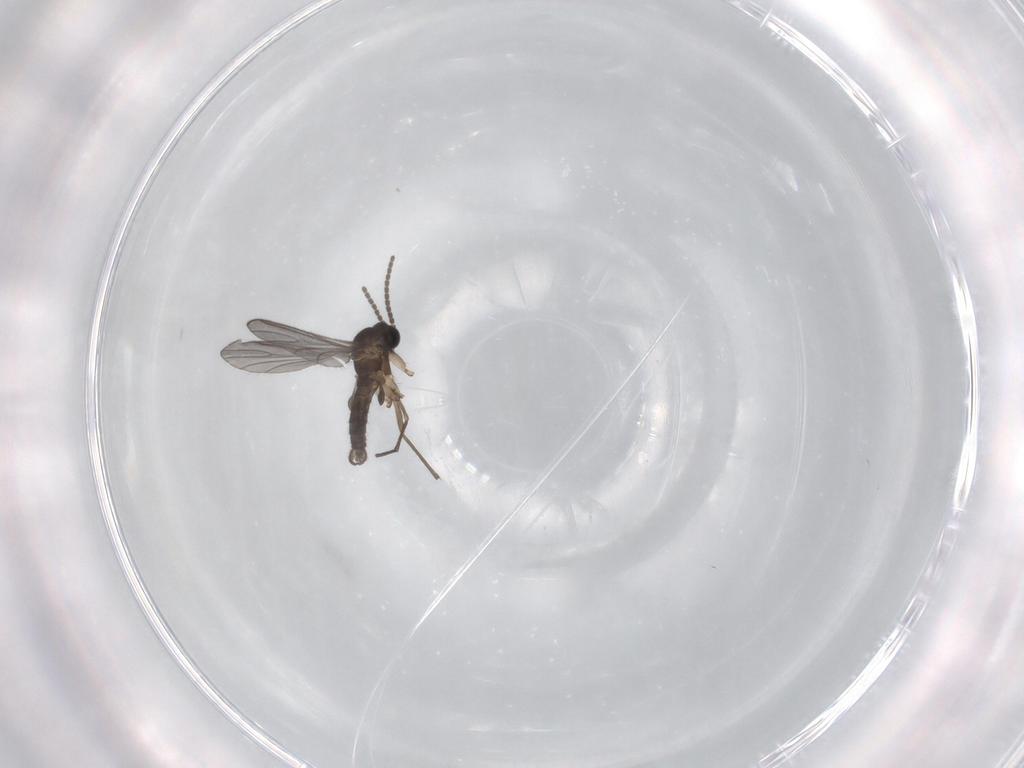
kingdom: Animalia
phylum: Arthropoda
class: Insecta
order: Diptera
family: Sciaridae
